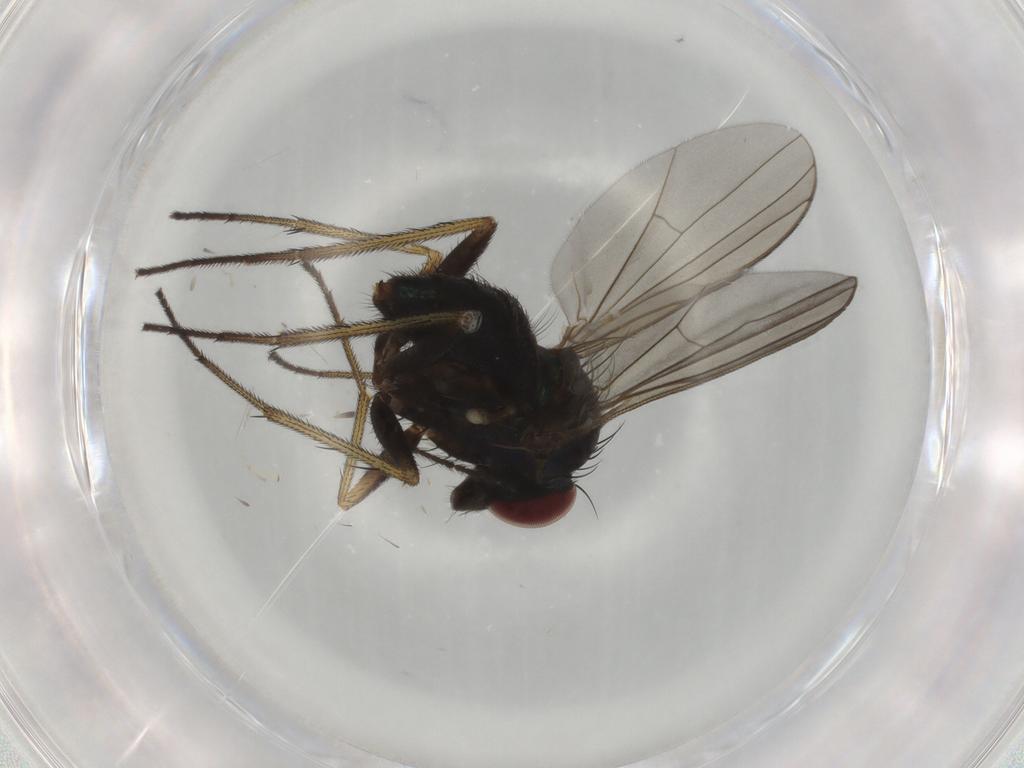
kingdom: Animalia
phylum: Arthropoda
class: Insecta
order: Diptera
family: Dolichopodidae
